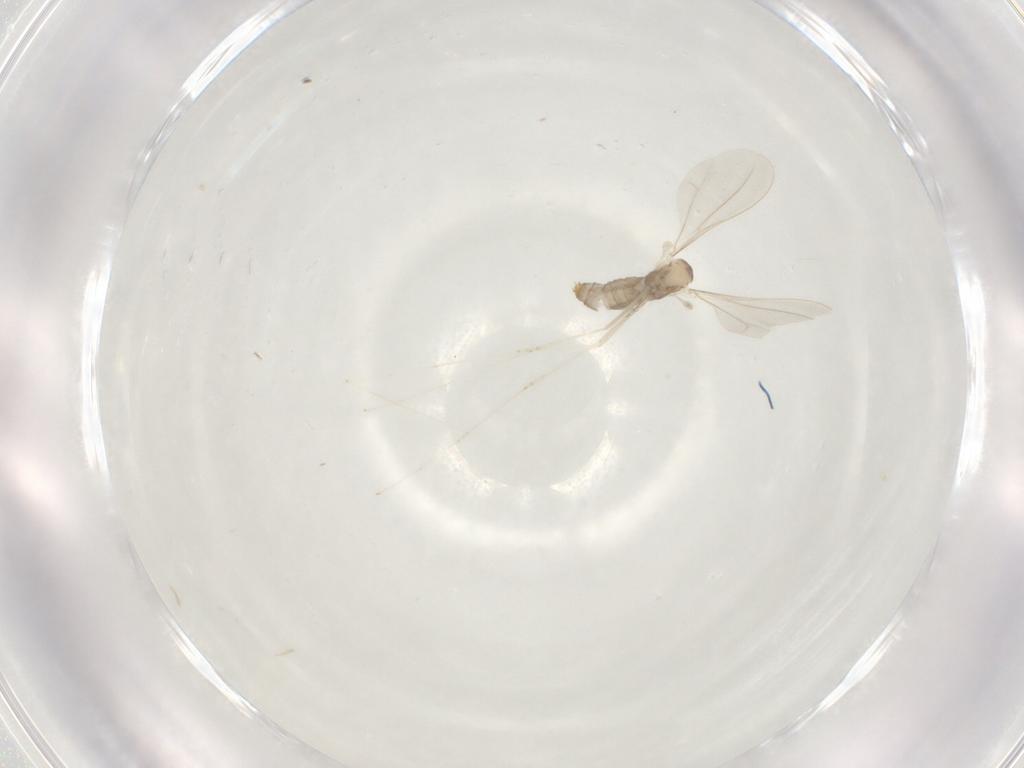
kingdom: Animalia
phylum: Arthropoda
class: Insecta
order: Diptera
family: Cecidomyiidae
